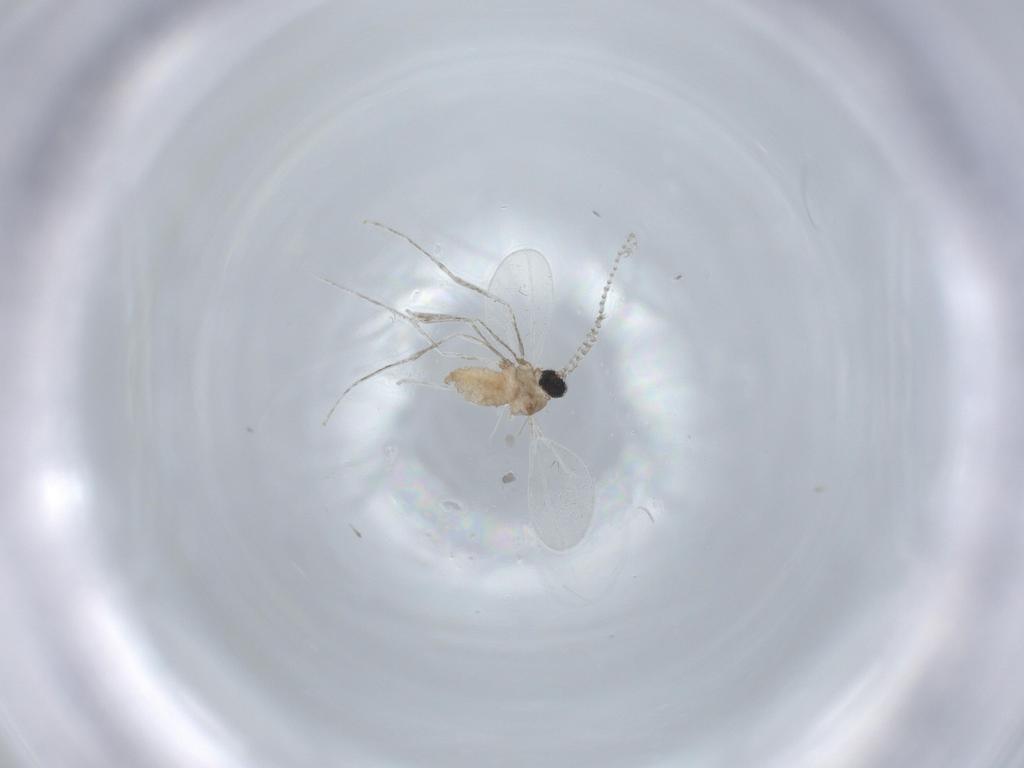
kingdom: Animalia
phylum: Arthropoda
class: Insecta
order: Diptera
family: Cecidomyiidae
